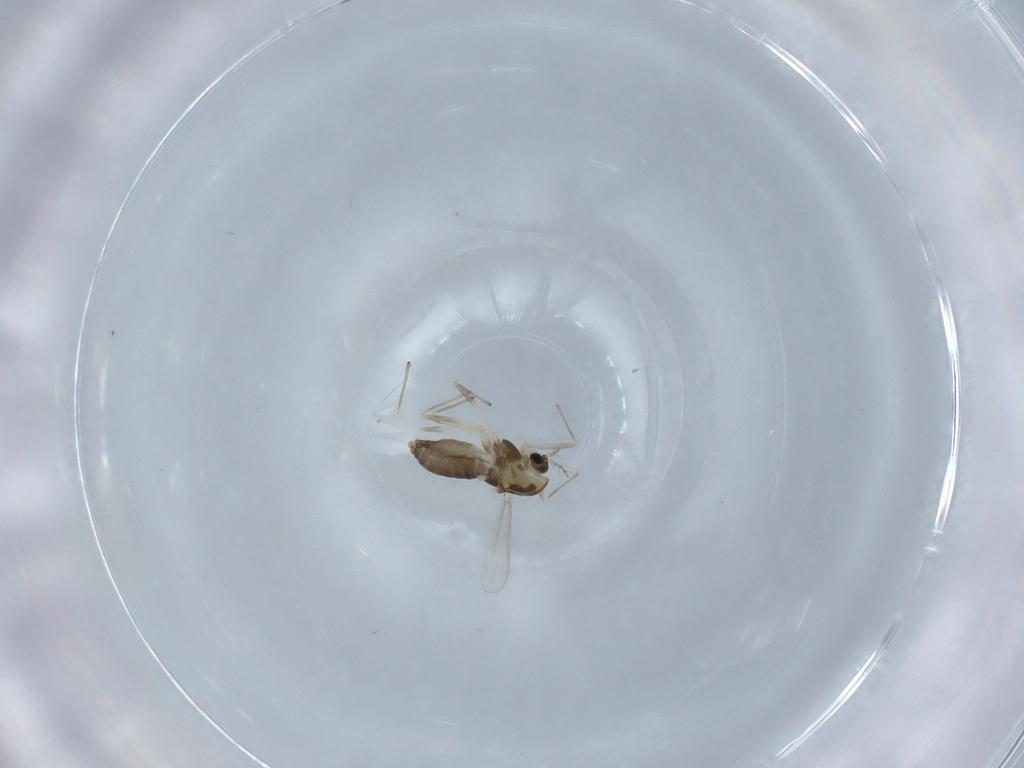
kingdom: Animalia
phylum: Arthropoda
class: Insecta
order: Diptera
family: Chironomidae
